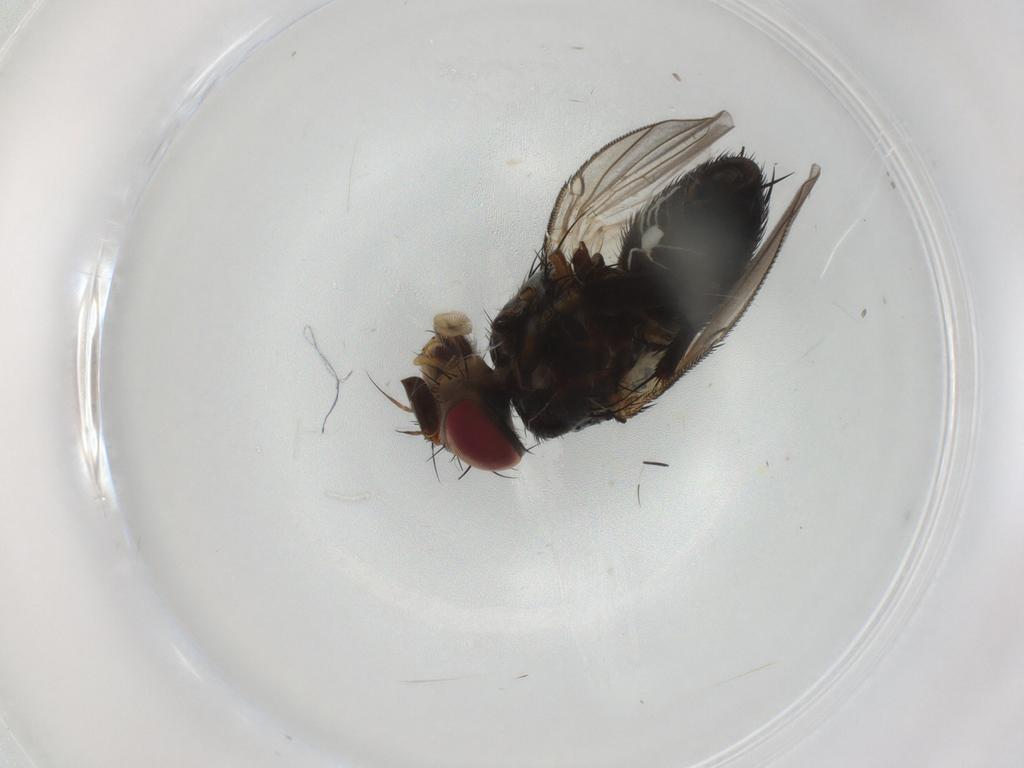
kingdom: Animalia
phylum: Arthropoda
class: Insecta
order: Diptera
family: Tachinidae
